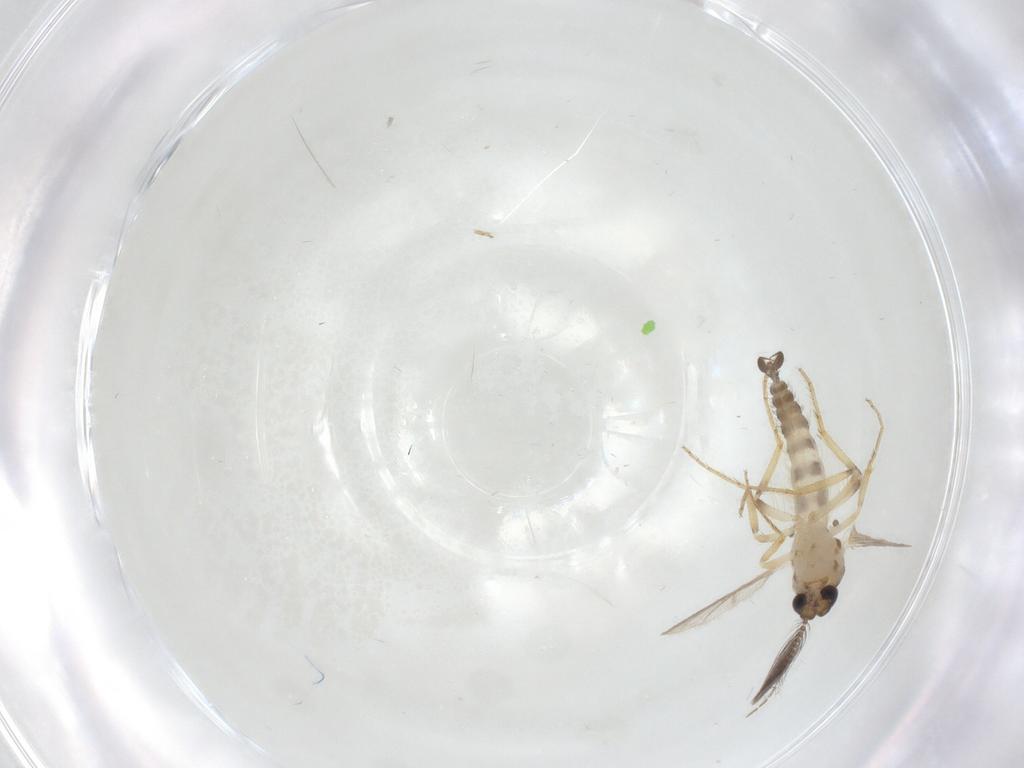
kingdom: Animalia
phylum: Arthropoda
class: Insecta
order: Diptera
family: Ceratopogonidae
